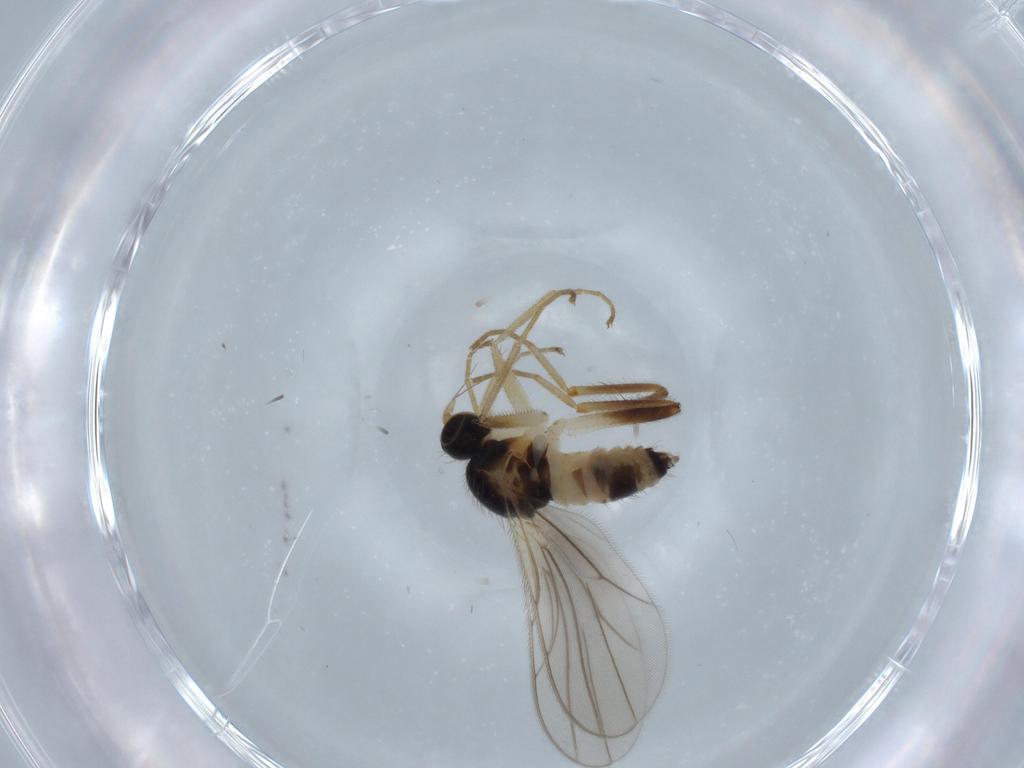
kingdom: Animalia
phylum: Arthropoda
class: Insecta
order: Diptera
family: Hybotidae
